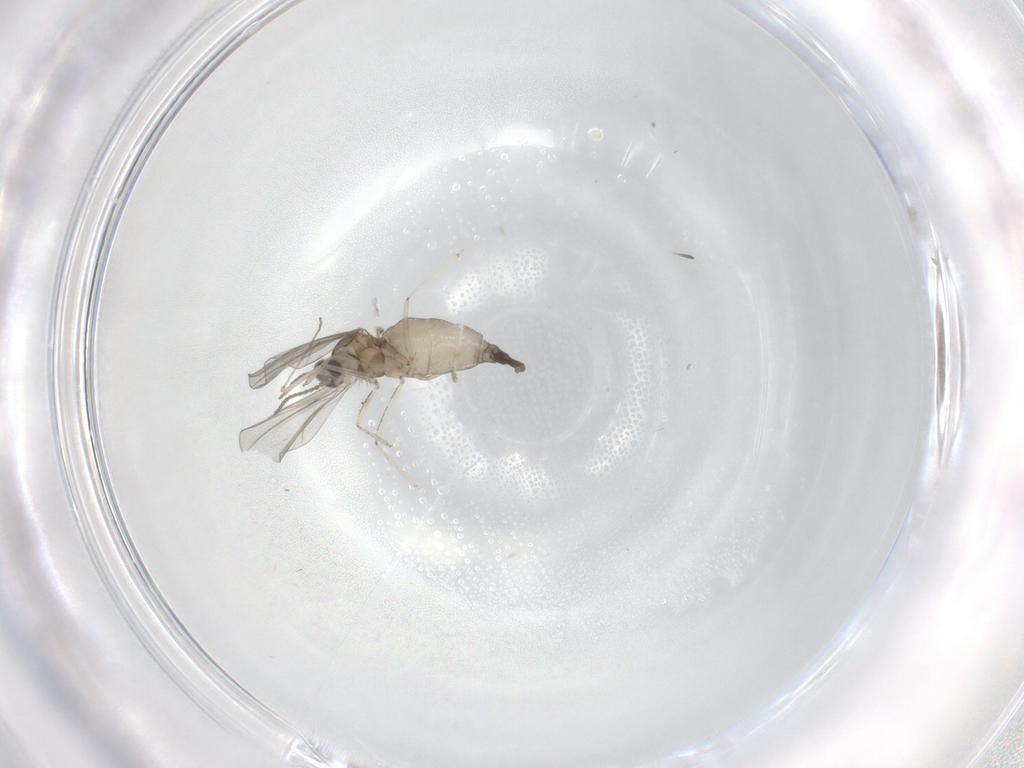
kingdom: Animalia
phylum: Arthropoda
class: Insecta
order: Diptera
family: Cecidomyiidae
